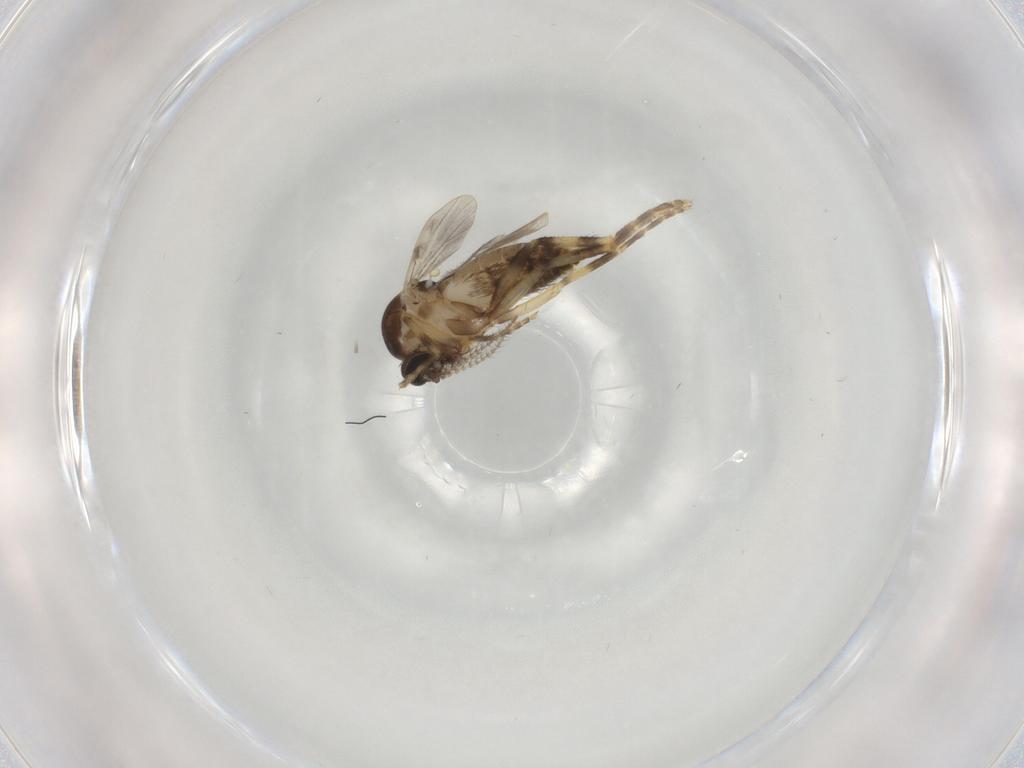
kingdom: Animalia
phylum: Arthropoda
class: Insecta
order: Diptera
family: Ceratopogonidae
